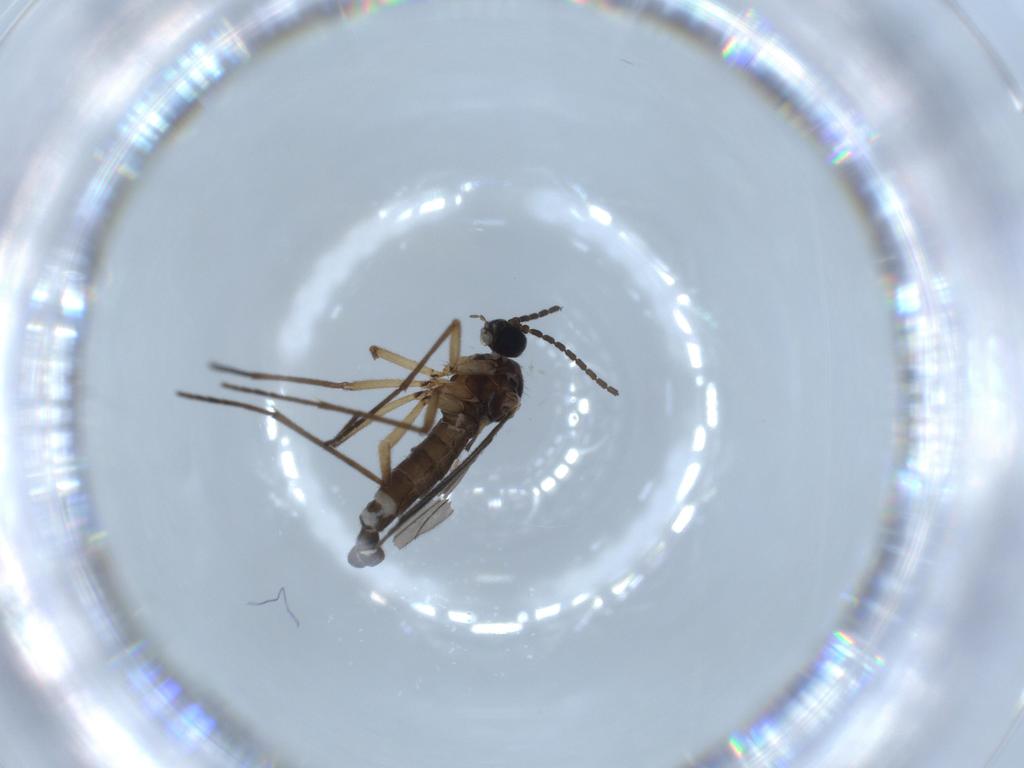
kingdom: Animalia
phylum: Arthropoda
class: Insecta
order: Diptera
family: Sciaridae
